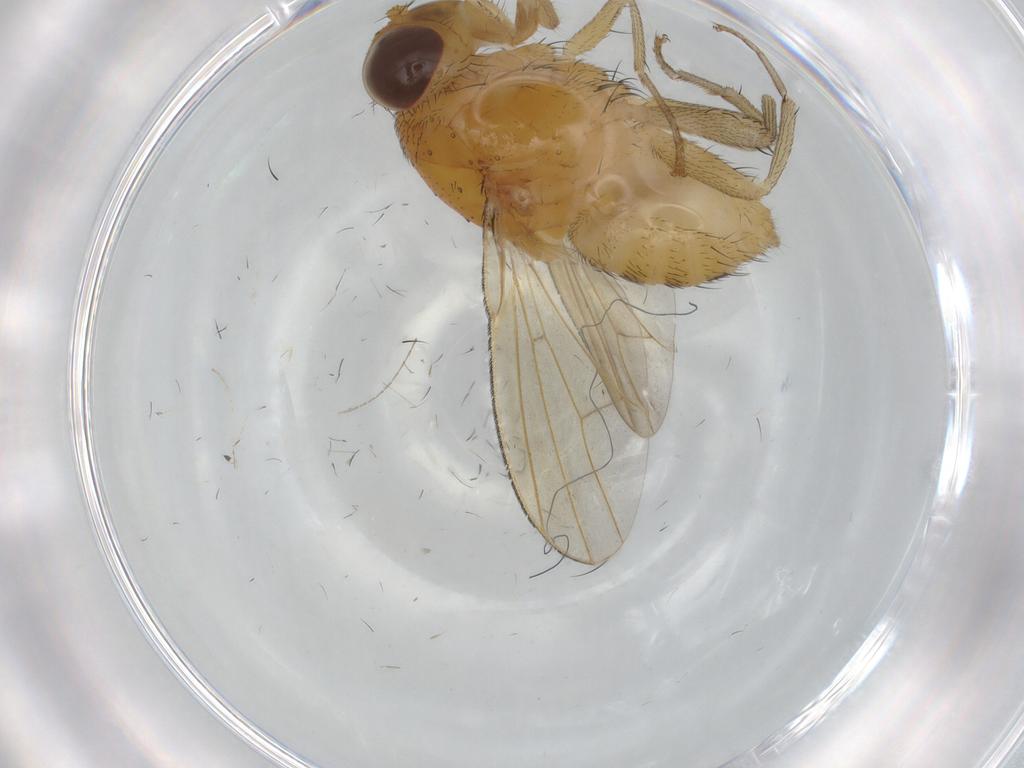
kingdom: Animalia
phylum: Arthropoda
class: Insecta
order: Diptera
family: Lauxaniidae
